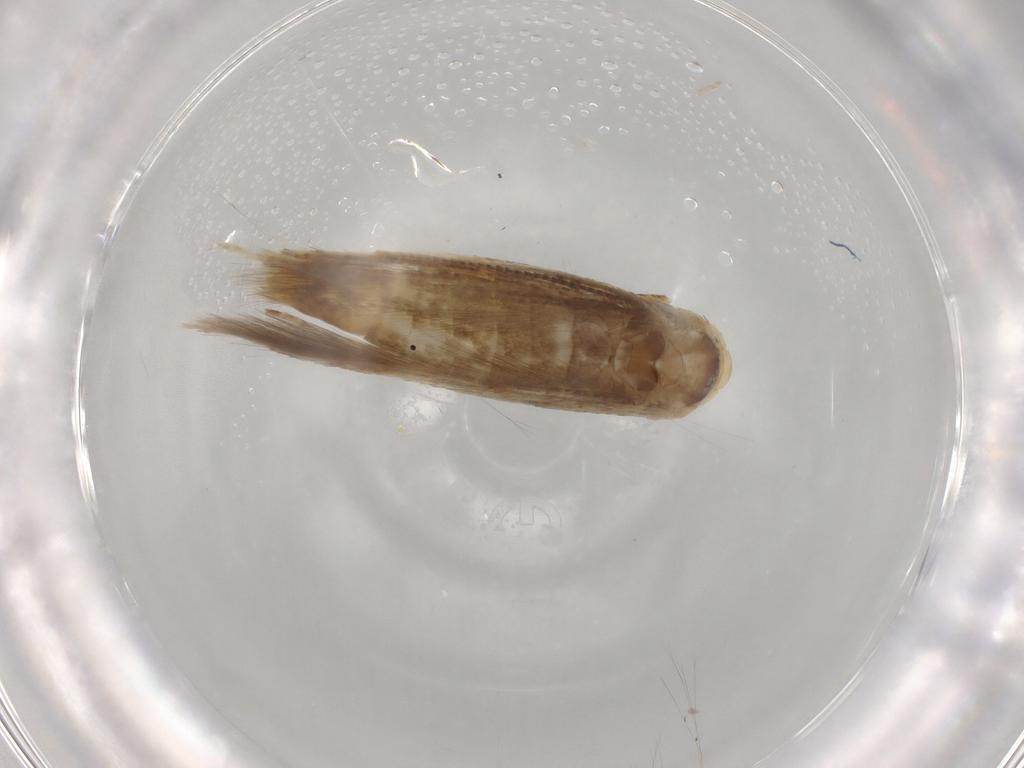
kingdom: Animalia
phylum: Arthropoda
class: Insecta
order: Lepidoptera
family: Gracillariidae
